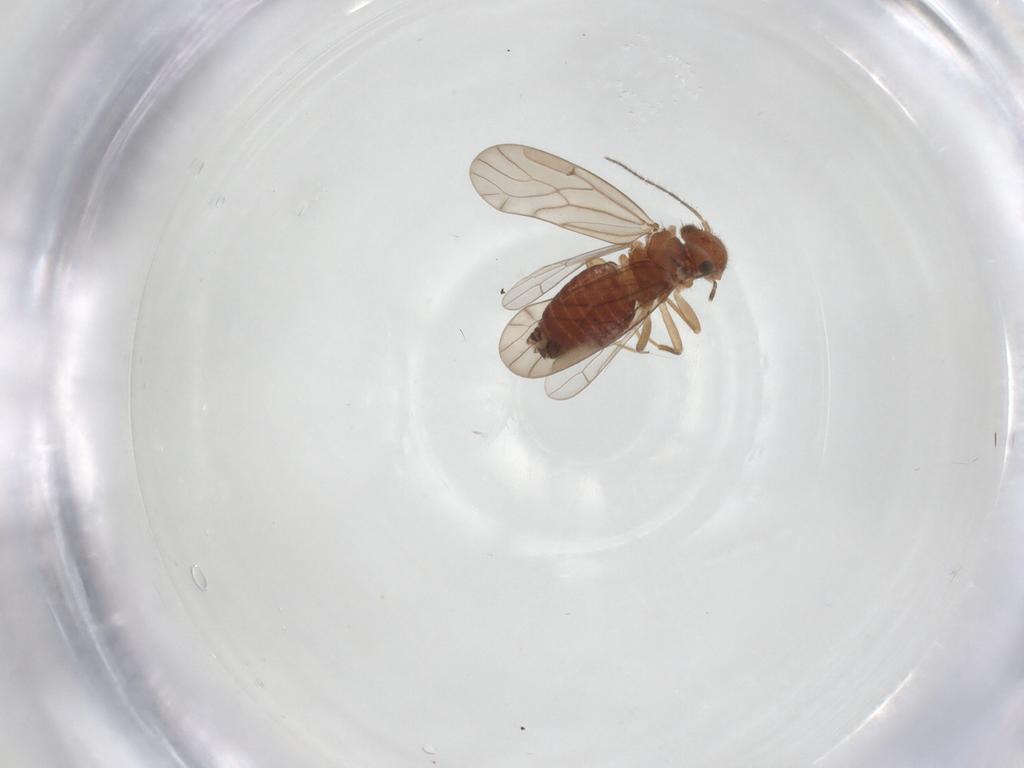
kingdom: Animalia
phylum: Arthropoda
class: Insecta
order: Psocodea
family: Ectopsocidae
